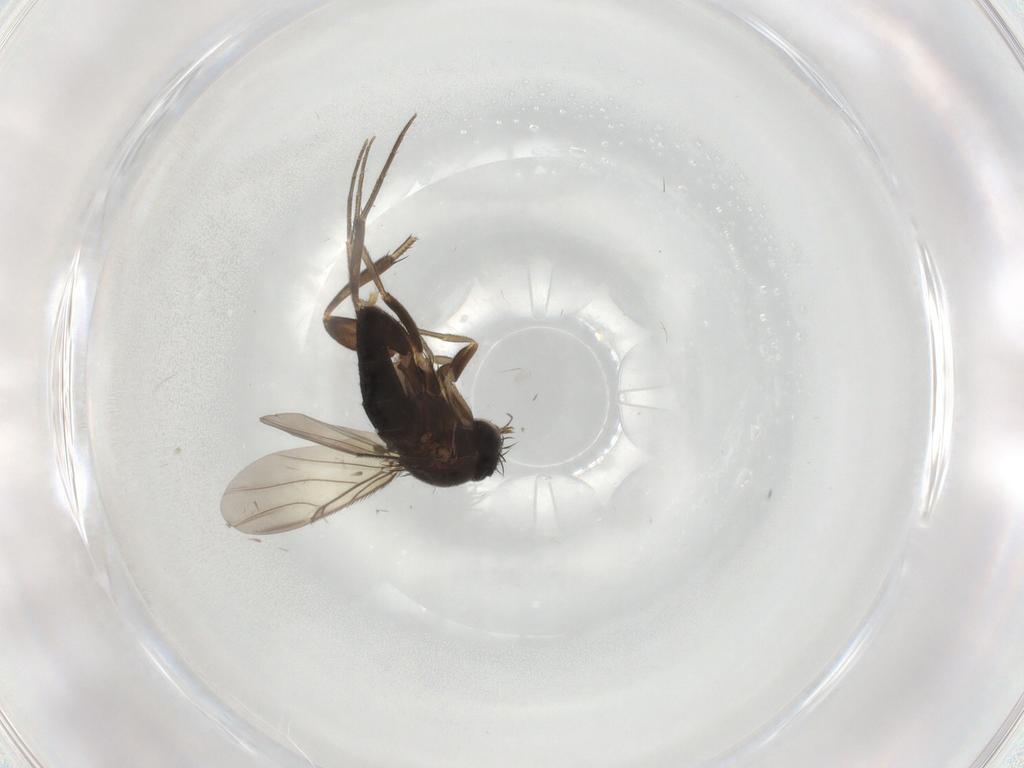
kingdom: Animalia
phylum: Arthropoda
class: Insecta
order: Diptera
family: Phoridae
